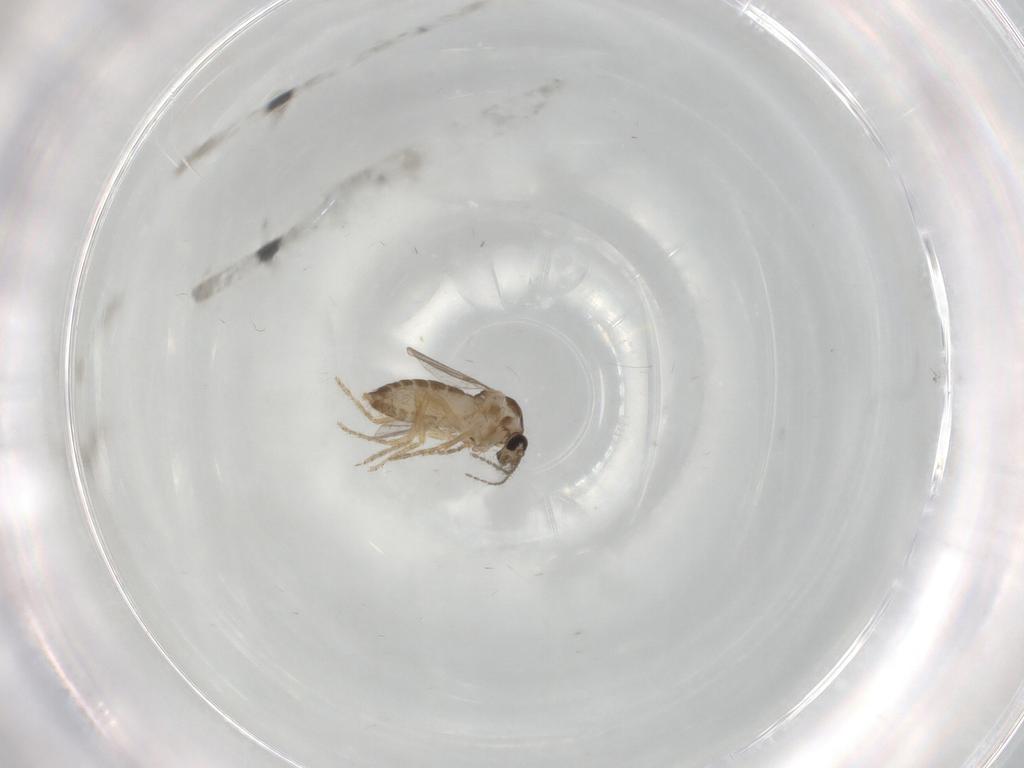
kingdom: Animalia
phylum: Arthropoda
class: Insecta
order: Diptera
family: Ceratopogonidae
